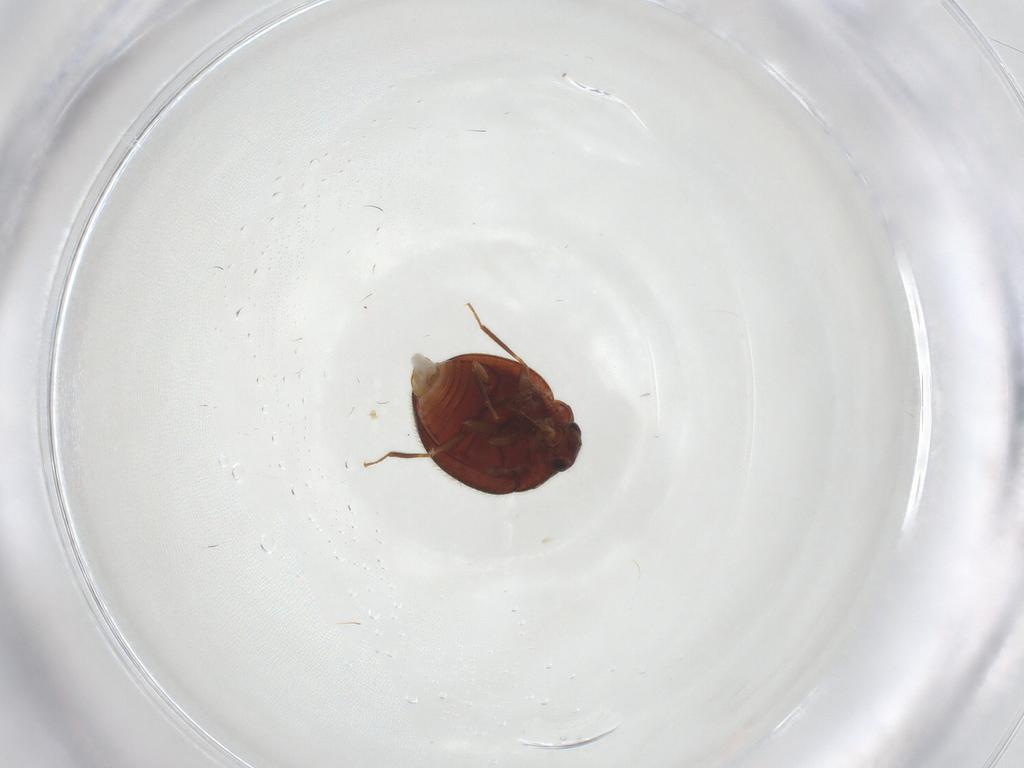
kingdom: Animalia
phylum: Arthropoda
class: Insecta
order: Coleoptera
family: Anamorphidae
